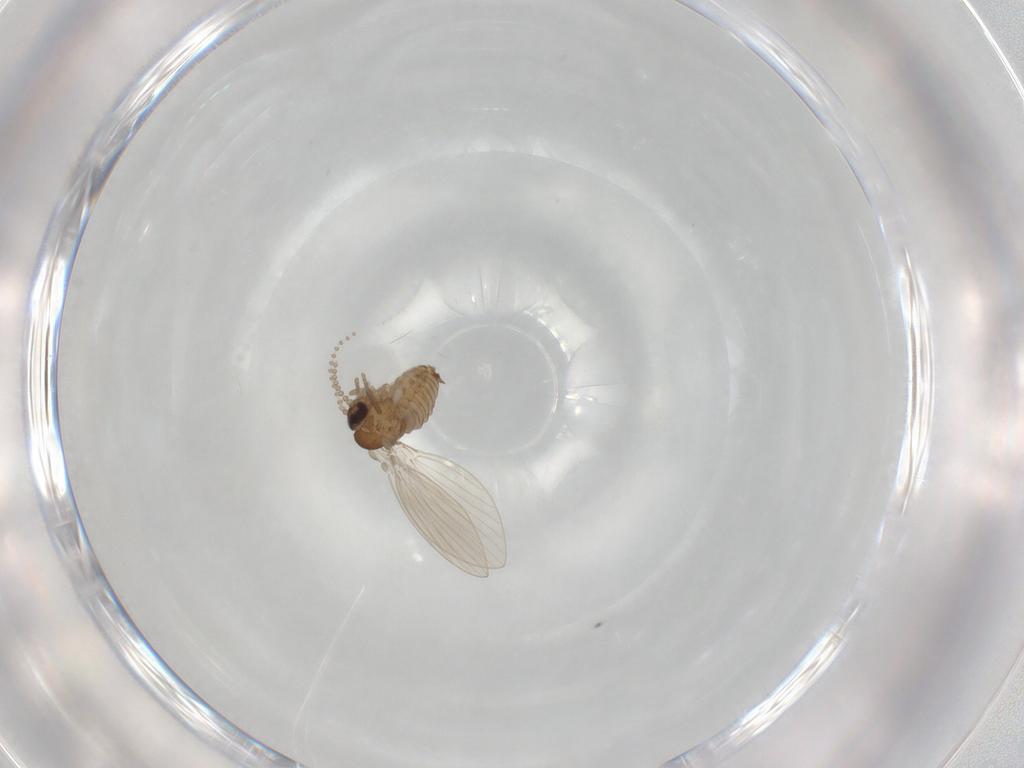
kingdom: Animalia
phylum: Arthropoda
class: Insecta
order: Diptera
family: Psychodidae
